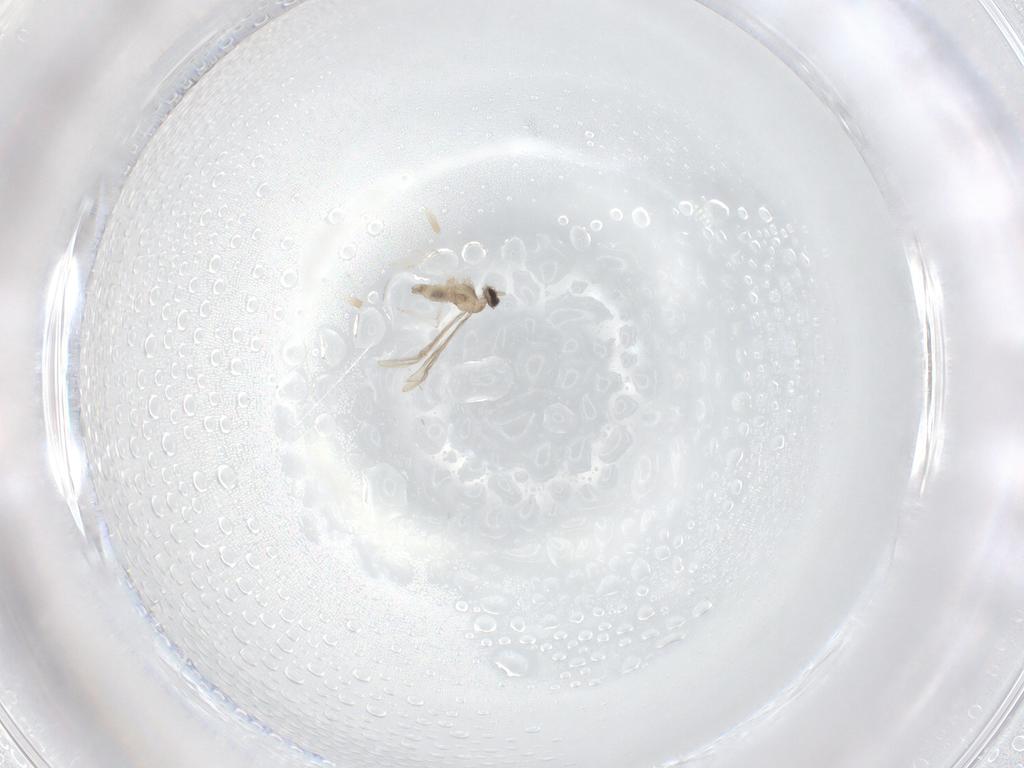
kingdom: Animalia
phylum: Arthropoda
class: Insecta
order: Diptera
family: Cecidomyiidae
